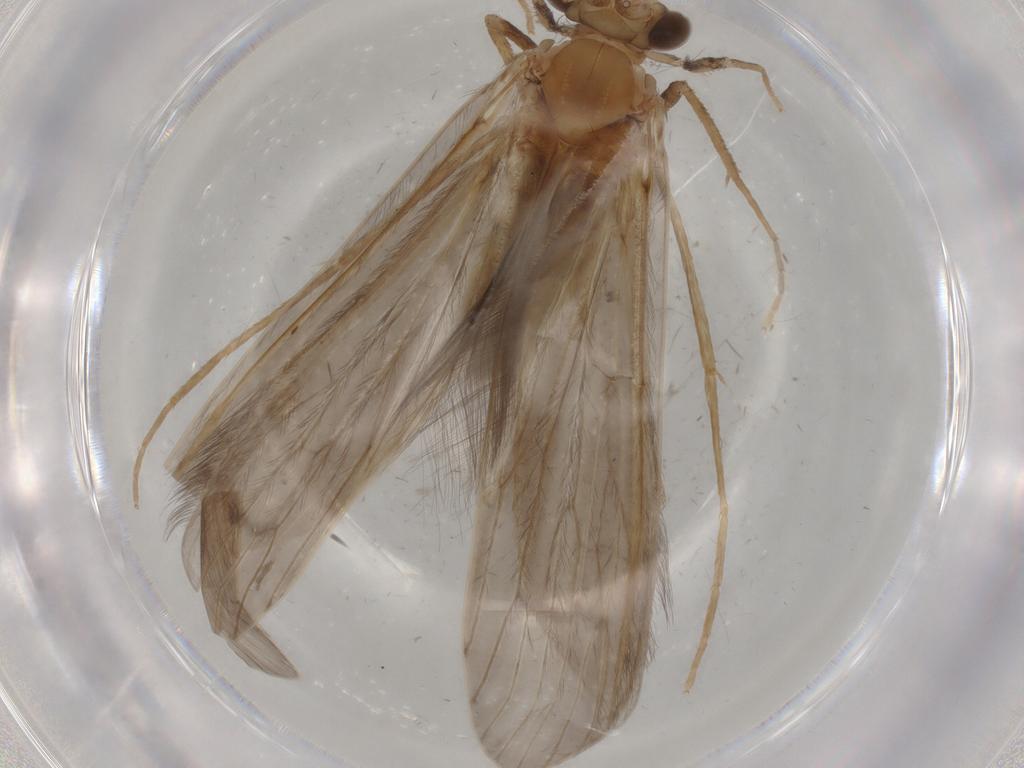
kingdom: Animalia
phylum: Arthropoda
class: Insecta
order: Trichoptera
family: Leptoceridae
